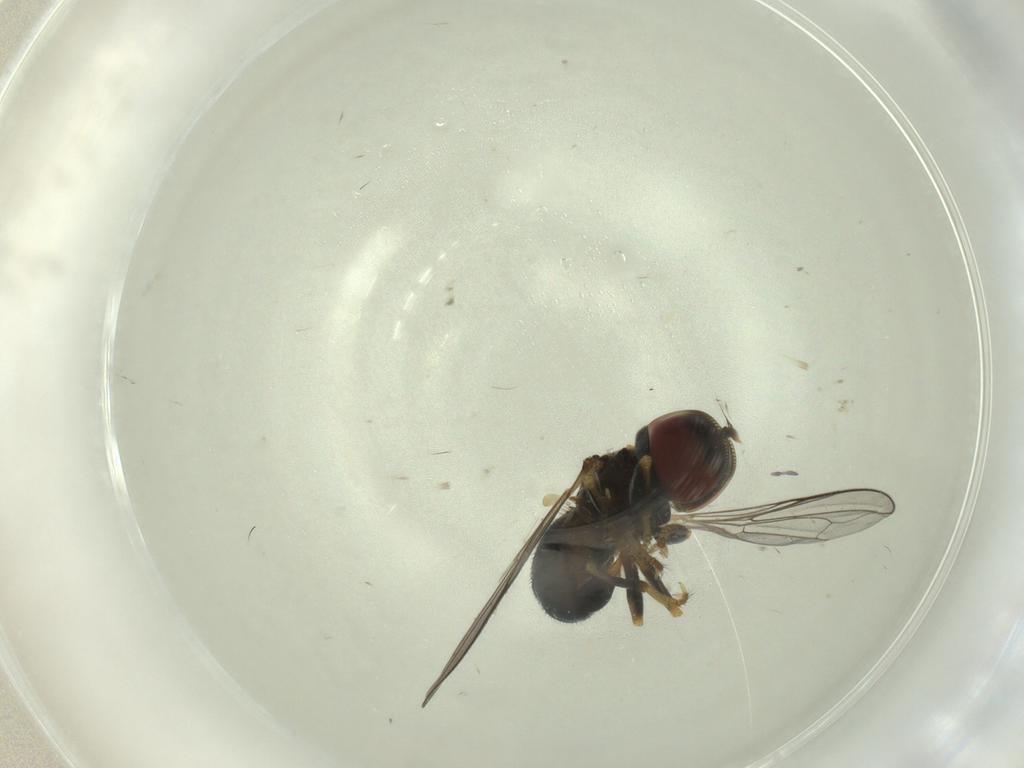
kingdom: Animalia
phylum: Arthropoda
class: Insecta
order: Diptera
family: Pipunculidae
